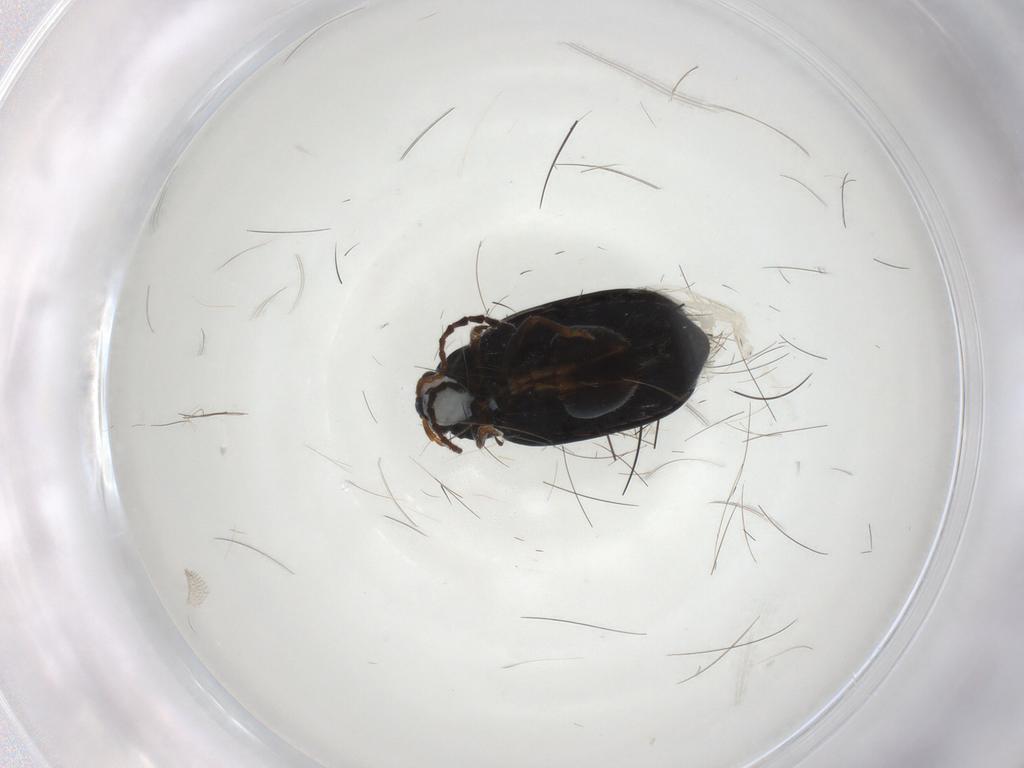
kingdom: Animalia
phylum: Arthropoda
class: Insecta
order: Coleoptera
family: Chrysomelidae
